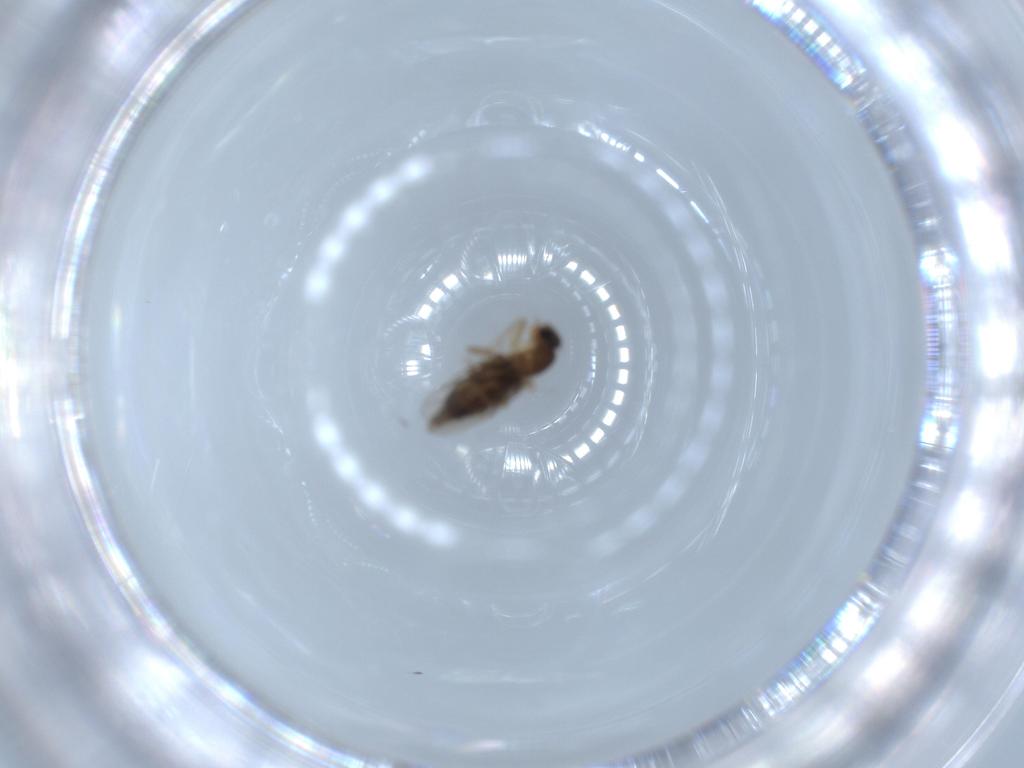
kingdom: Animalia
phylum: Arthropoda
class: Insecta
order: Diptera
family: Phoridae
